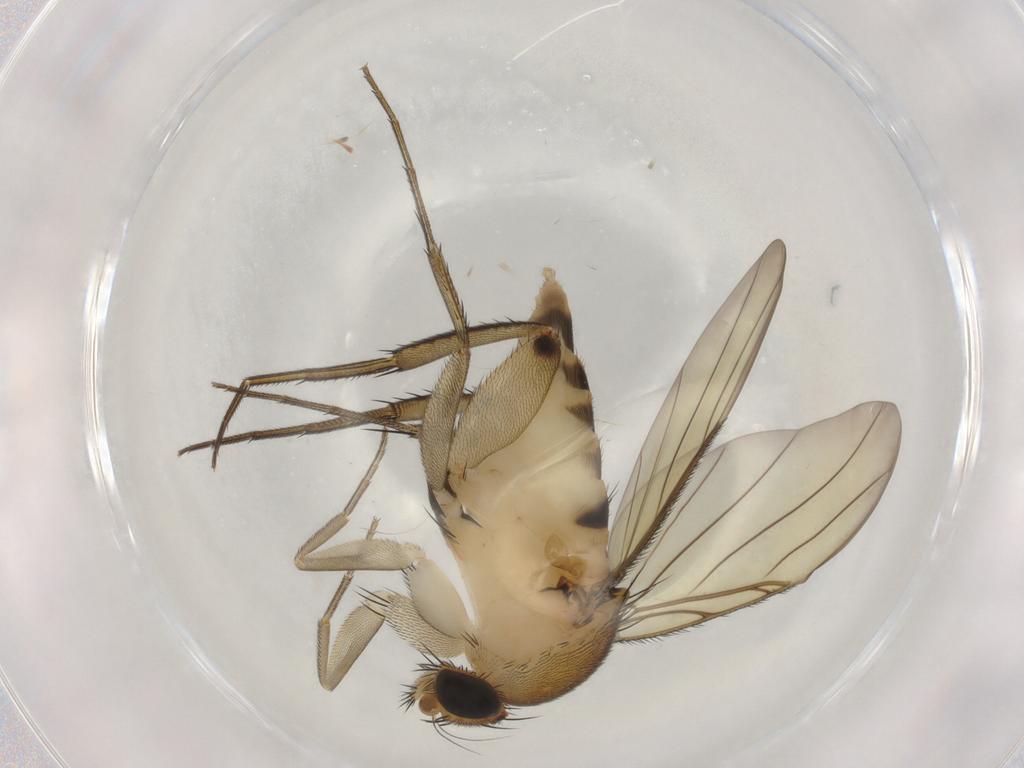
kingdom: Animalia
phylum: Arthropoda
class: Insecta
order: Diptera
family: Phoridae
